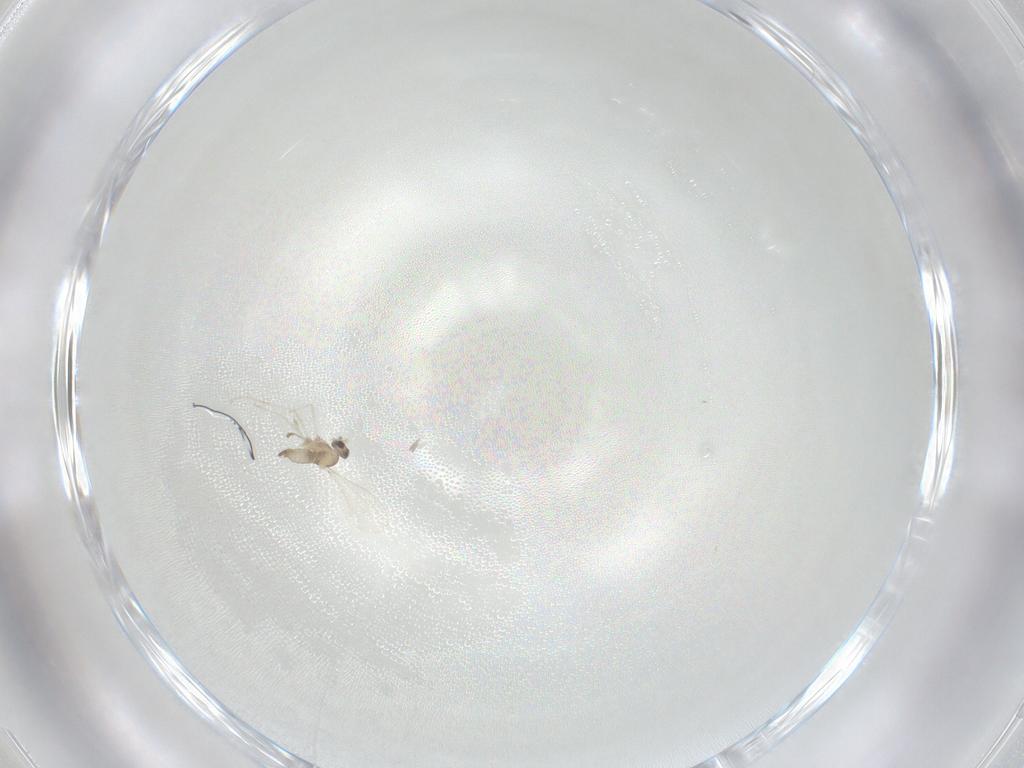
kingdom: Animalia
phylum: Arthropoda
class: Insecta
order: Diptera
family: Cecidomyiidae
